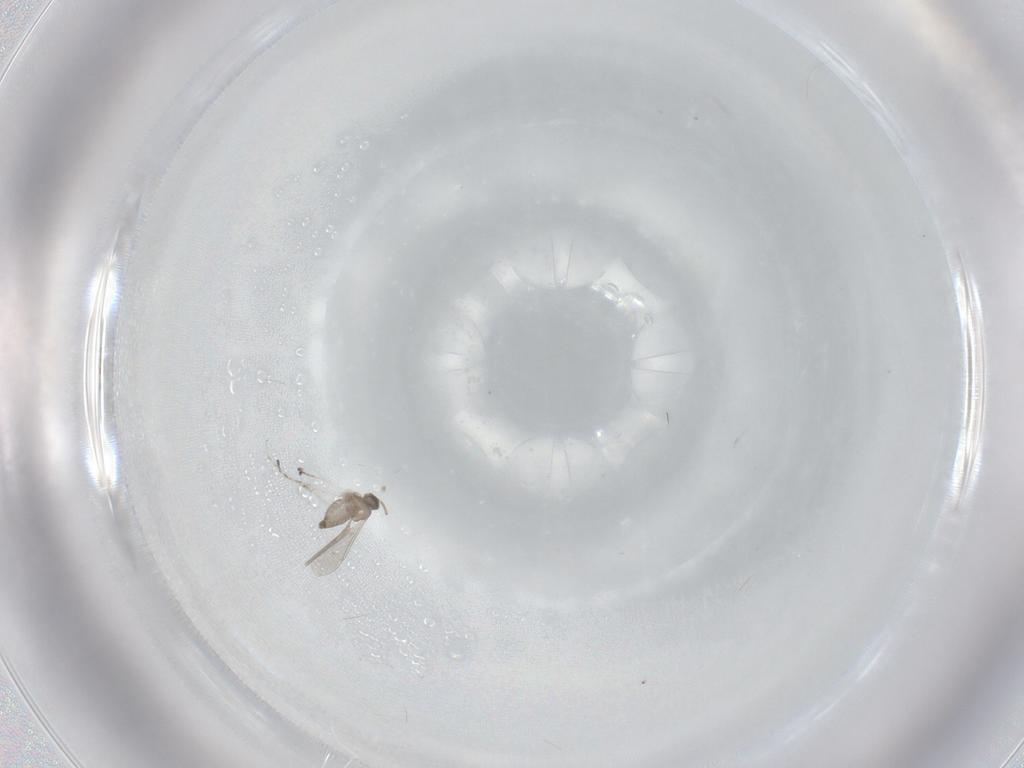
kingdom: Animalia
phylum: Arthropoda
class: Insecta
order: Diptera
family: Cecidomyiidae
